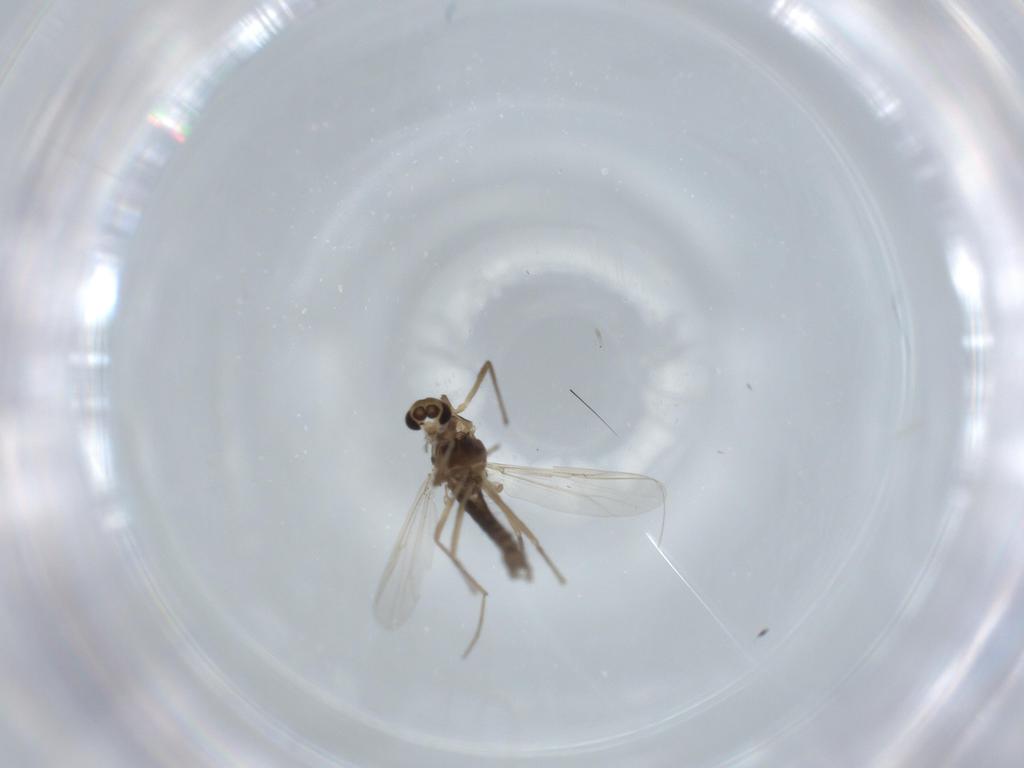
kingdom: Animalia
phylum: Arthropoda
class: Insecta
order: Diptera
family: Chironomidae
